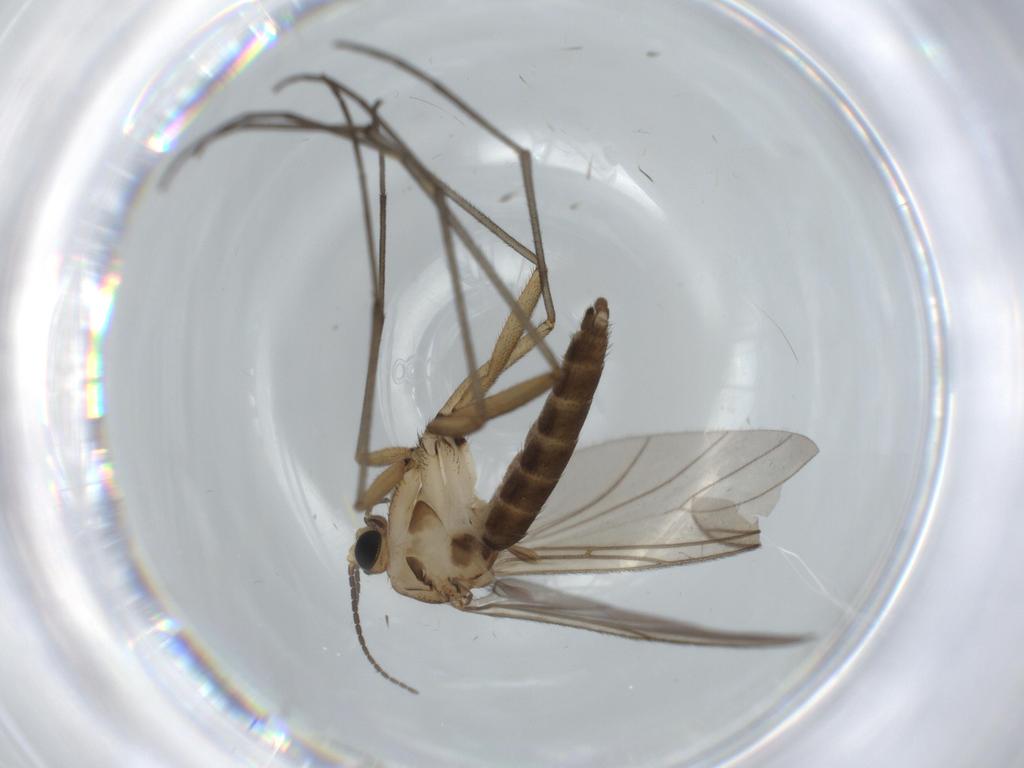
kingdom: Animalia
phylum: Arthropoda
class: Insecta
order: Diptera
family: Sciaridae
